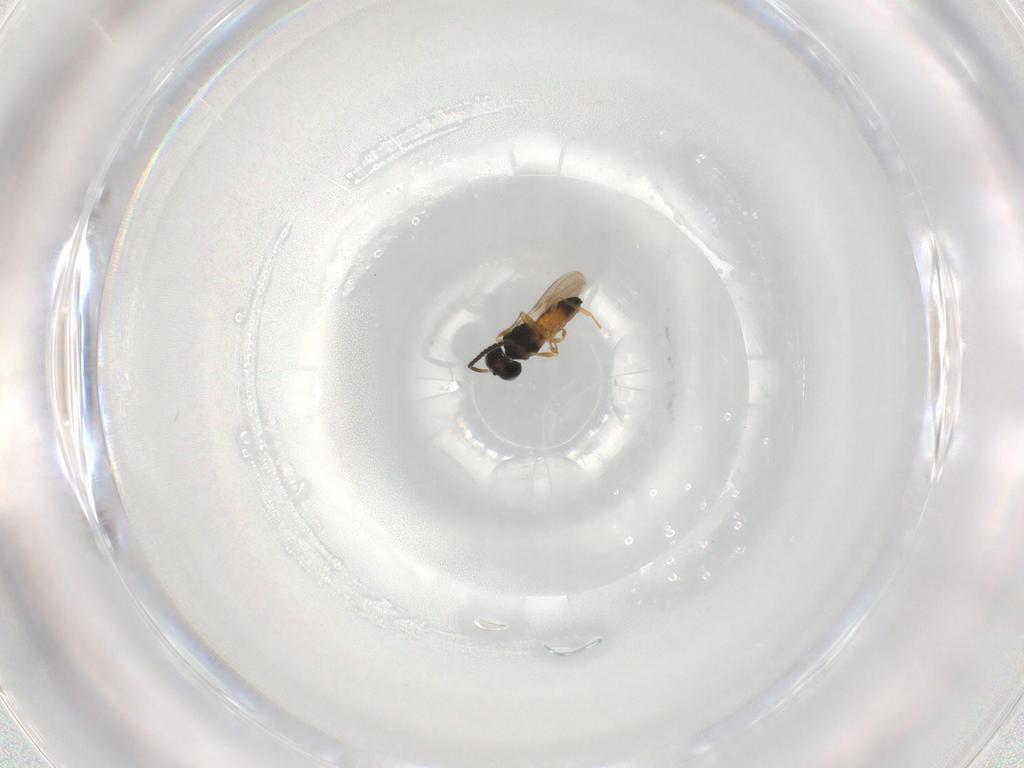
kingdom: Animalia
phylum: Arthropoda
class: Insecta
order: Hymenoptera
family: Scelionidae
